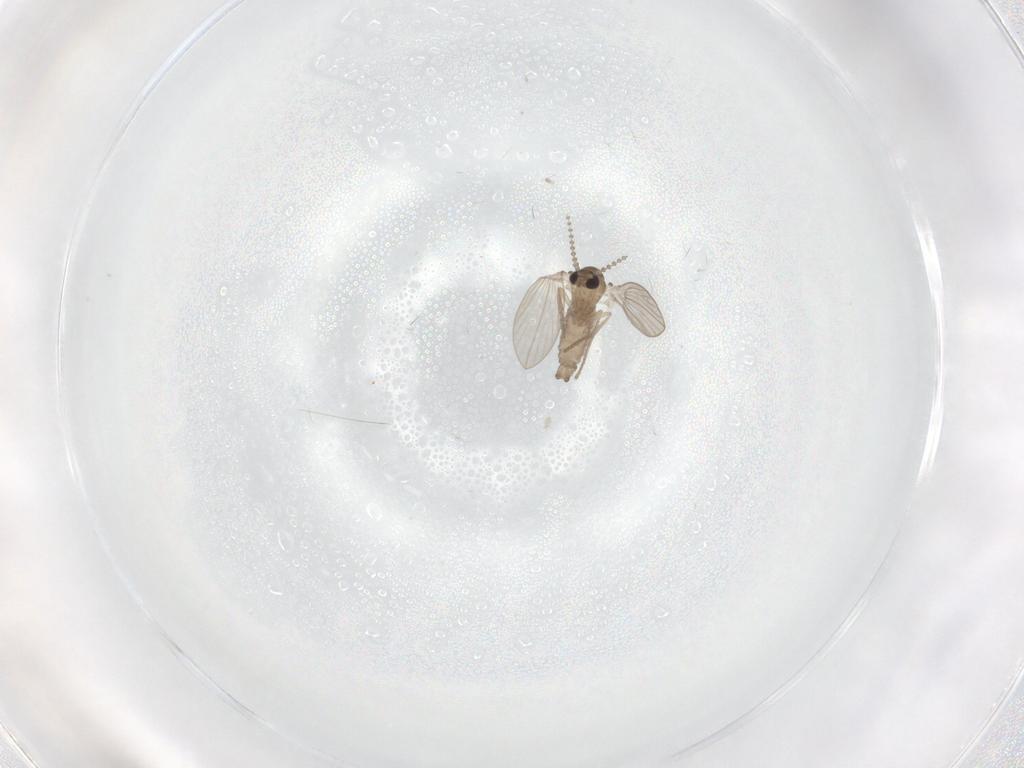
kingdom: Animalia
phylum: Arthropoda
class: Insecta
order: Diptera
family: Psychodidae
